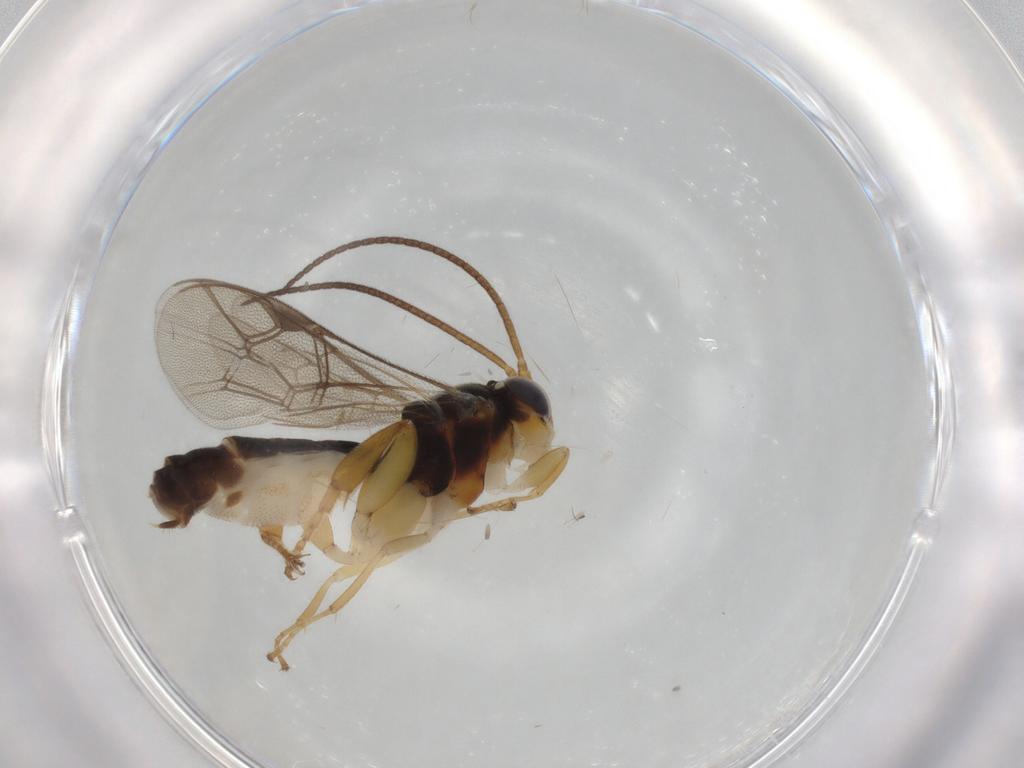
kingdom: Animalia
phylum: Arthropoda
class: Insecta
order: Hymenoptera
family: Ichneumonidae
